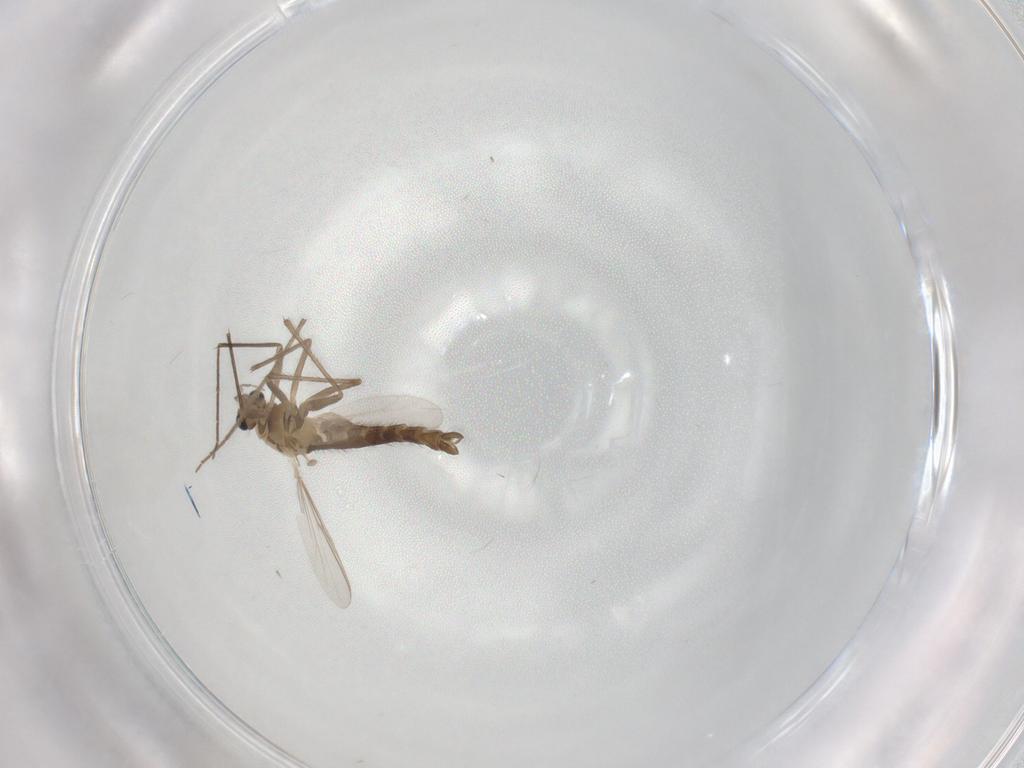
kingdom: Animalia
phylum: Arthropoda
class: Insecta
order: Diptera
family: Chironomidae
